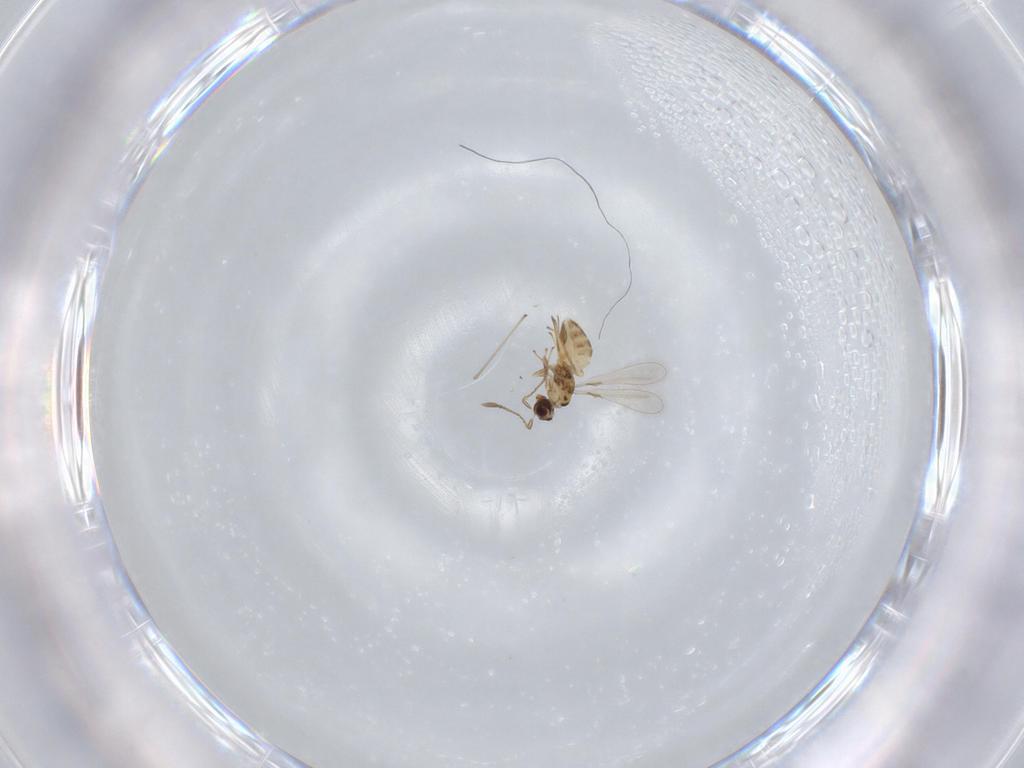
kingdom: Animalia
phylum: Arthropoda
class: Insecta
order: Hymenoptera
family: Mymaridae
